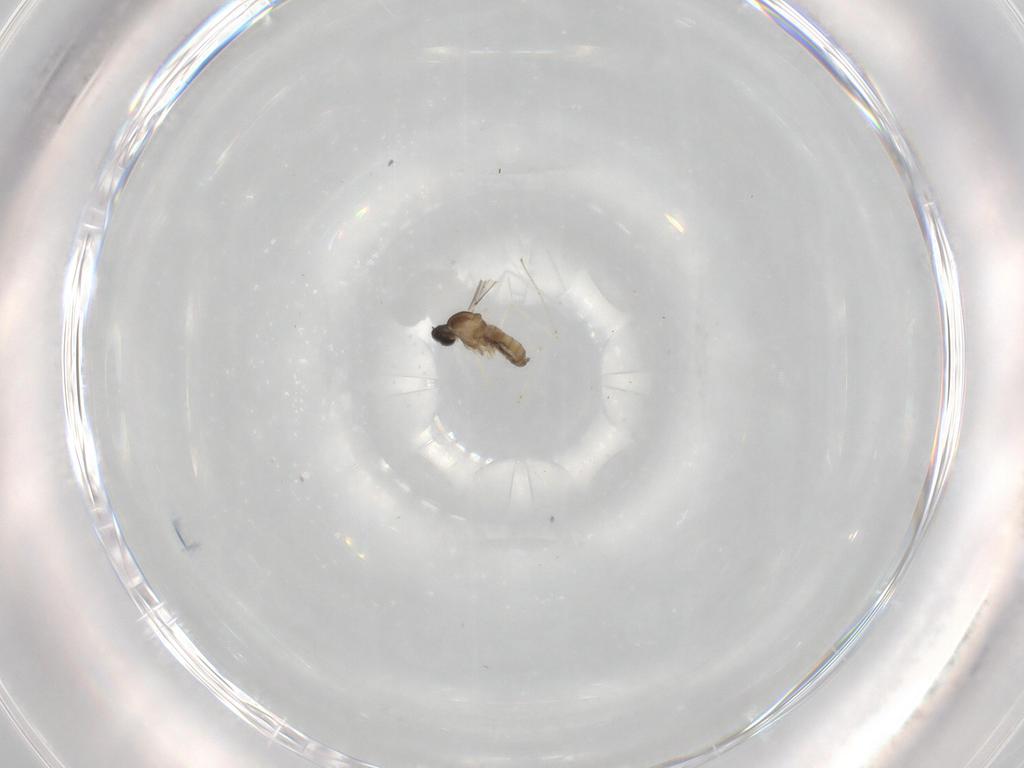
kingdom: Animalia
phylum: Arthropoda
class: Insecta
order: Diptera
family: Cecidomyiidae
